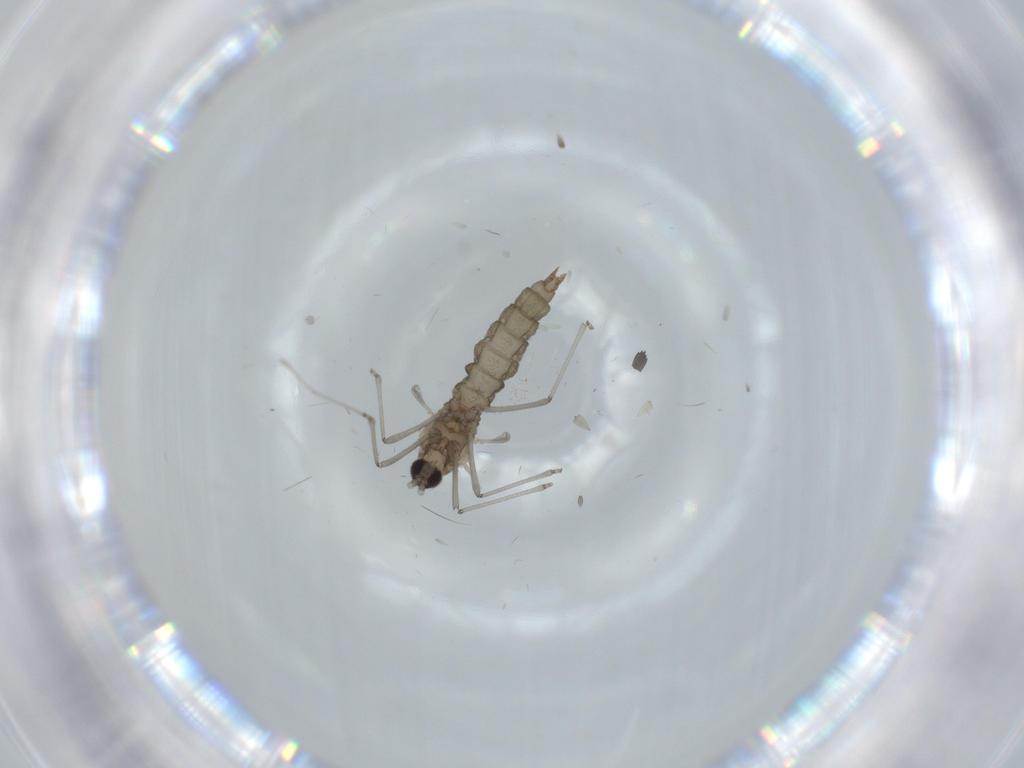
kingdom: Animalia
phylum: Arthropoda
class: Insecta
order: Diptera
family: Cecidomyiidae
